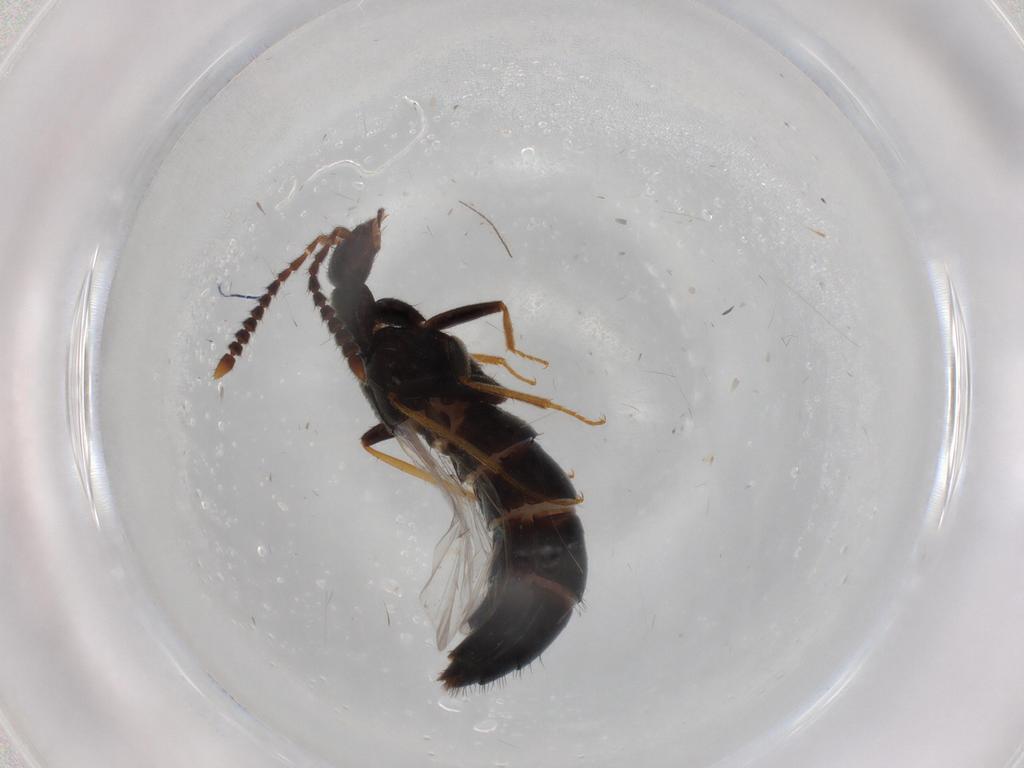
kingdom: Animalia
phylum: Arthropoda
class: Insecta
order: Coleoptera
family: Staphylinidae
